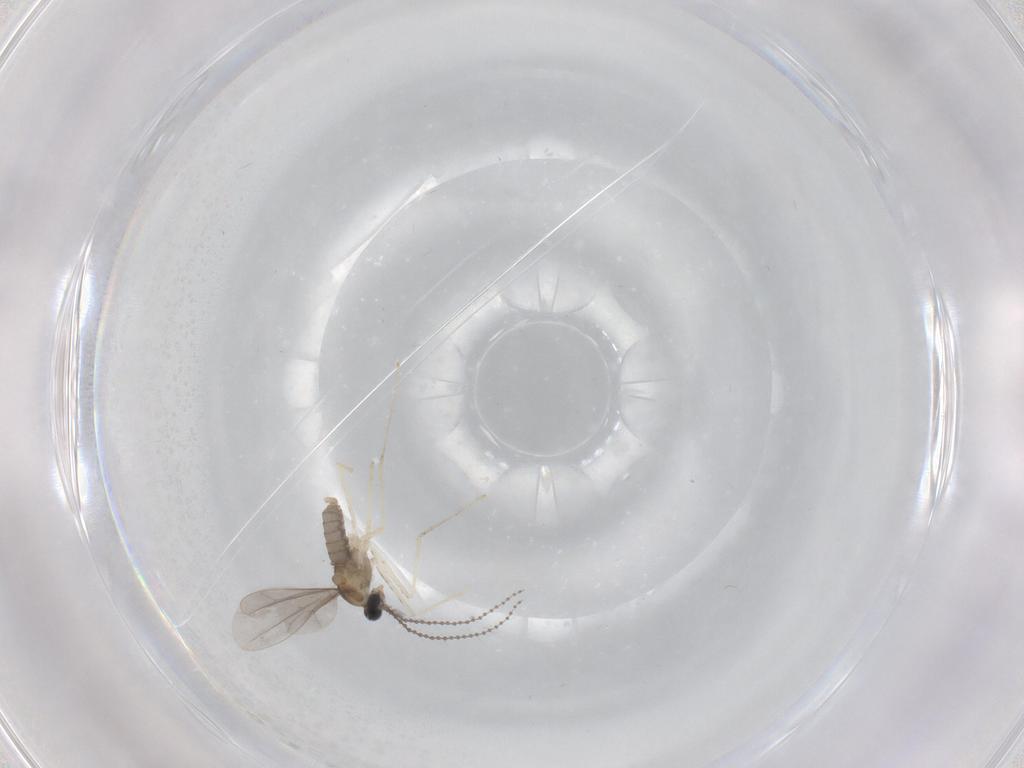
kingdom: Animalia
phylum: Arthropoda
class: Insecta
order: Diptera
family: Cecidomyiidae
